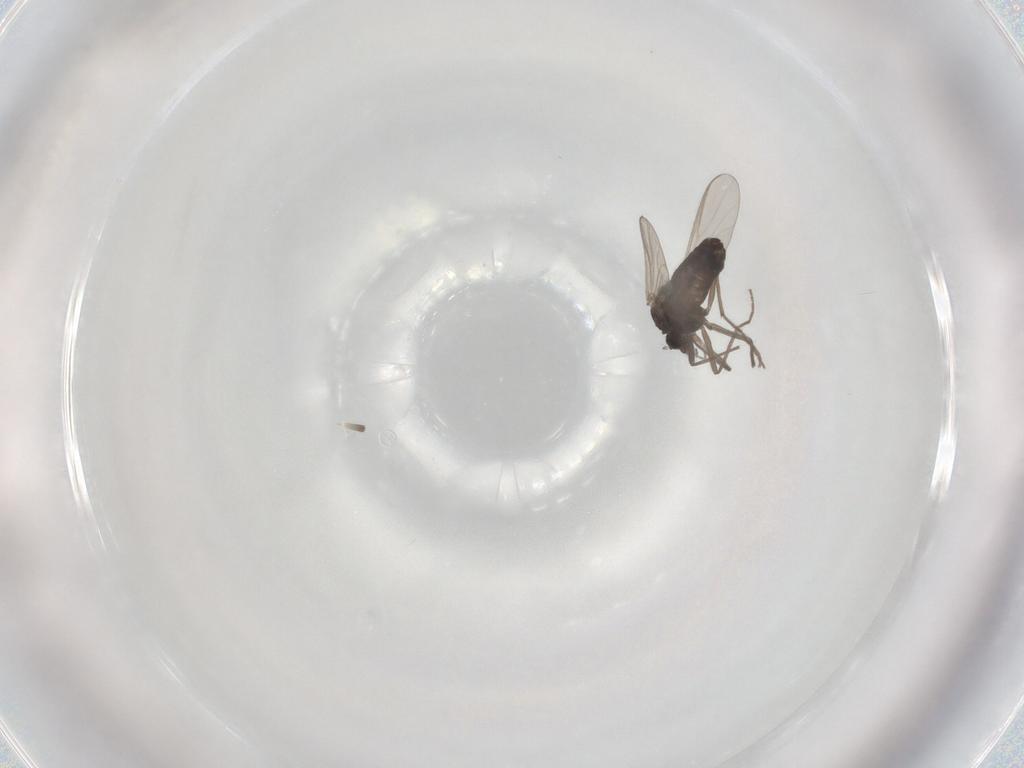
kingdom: Animalia
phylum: Arthropoda
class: Insecta
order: Diptera
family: Chironomidae
